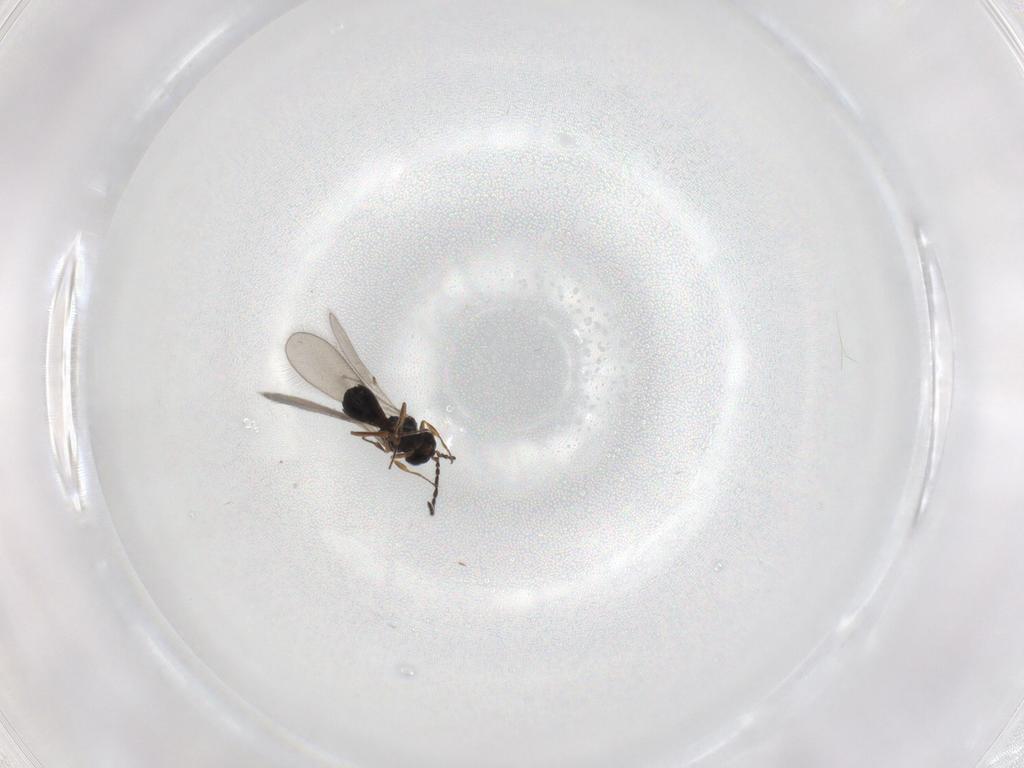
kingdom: Animalia
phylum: Arthropoda
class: Insecta
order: Hymenoptera
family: Scelionidae
